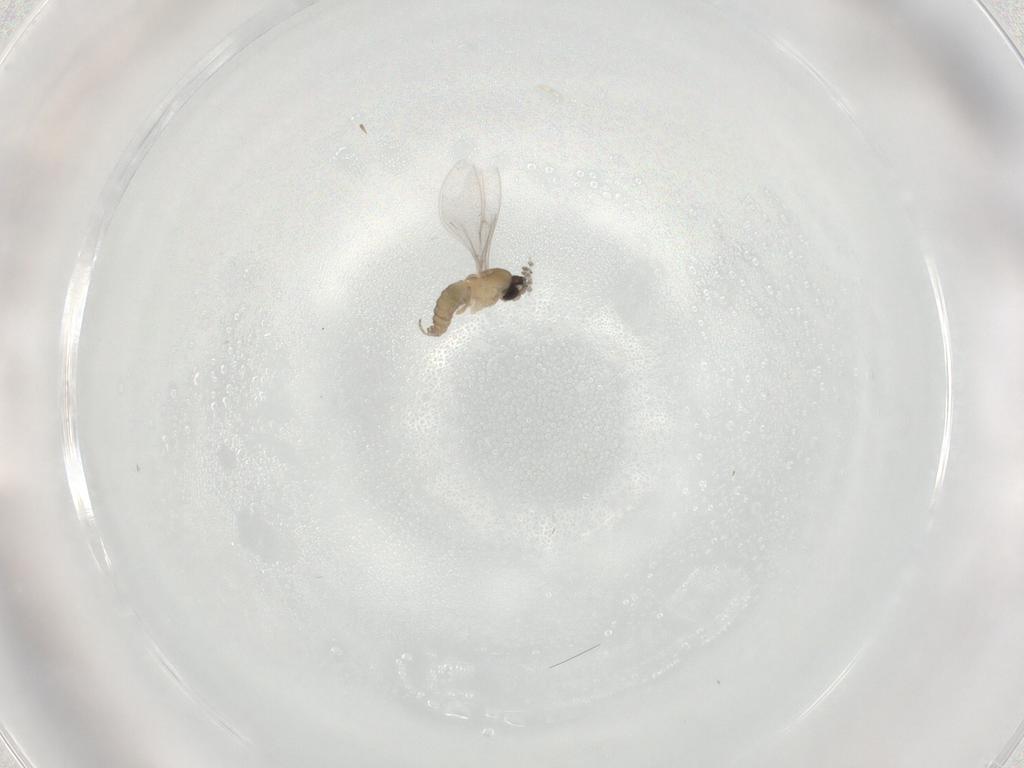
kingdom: Animalia
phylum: Arthropoda
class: Insecta
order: Diptera
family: Cecidomyiidae
